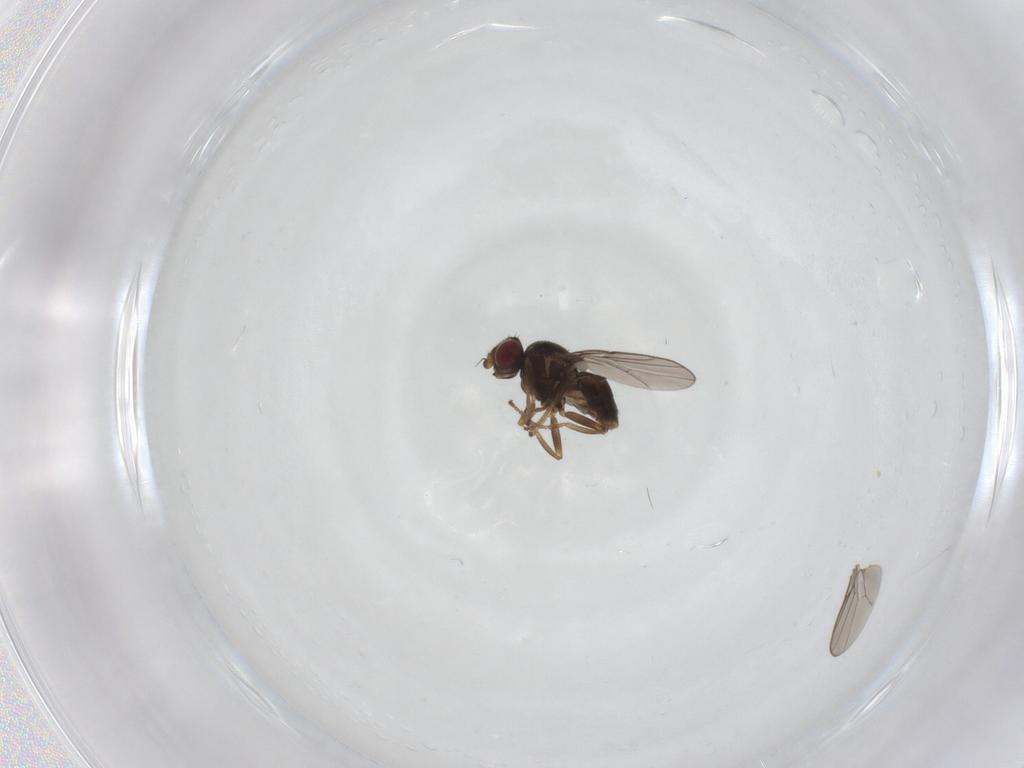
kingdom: Animalia
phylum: Arthropoda
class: Insecta
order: Diptera
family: Chloropidae
